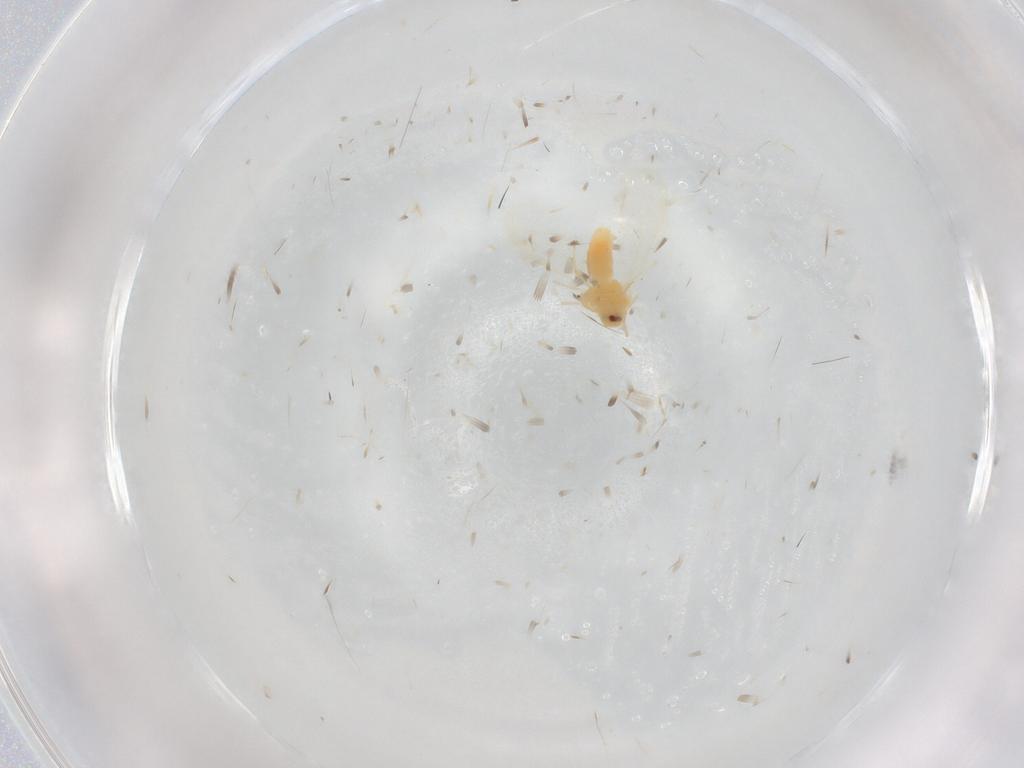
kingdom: Animalia
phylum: Arthropoda
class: Insecta
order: Hemiptera
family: Aleyrodidae
